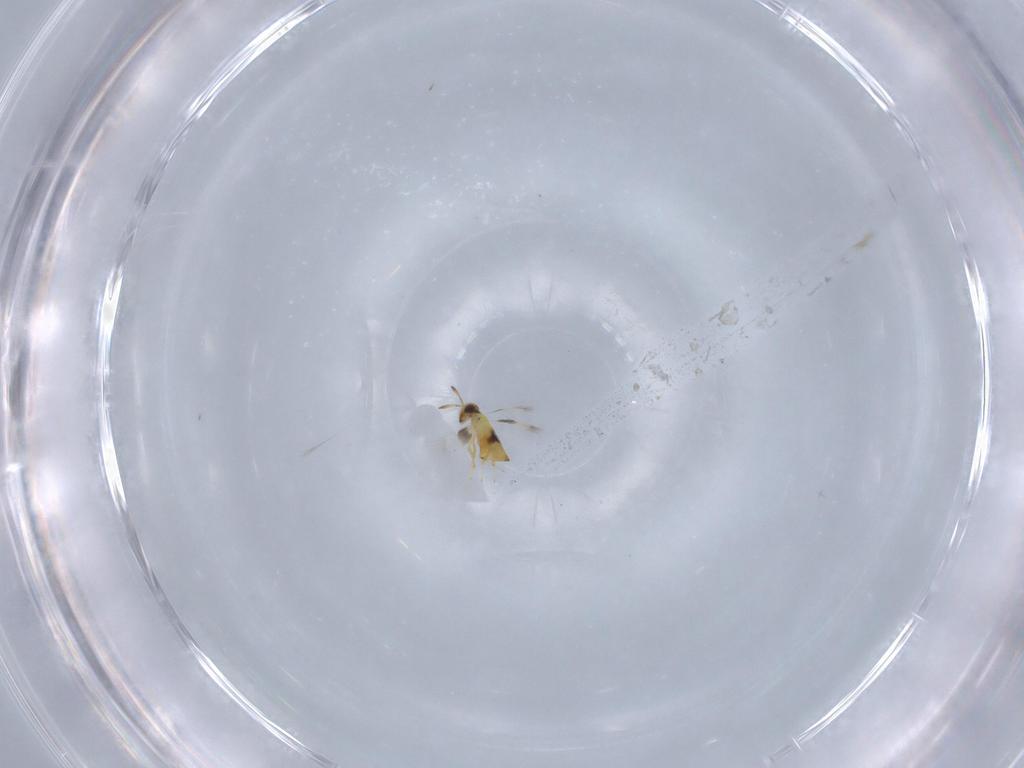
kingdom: Animalia
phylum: Arthropoda
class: Insecta
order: Hymenoptera
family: Signiphoridae
